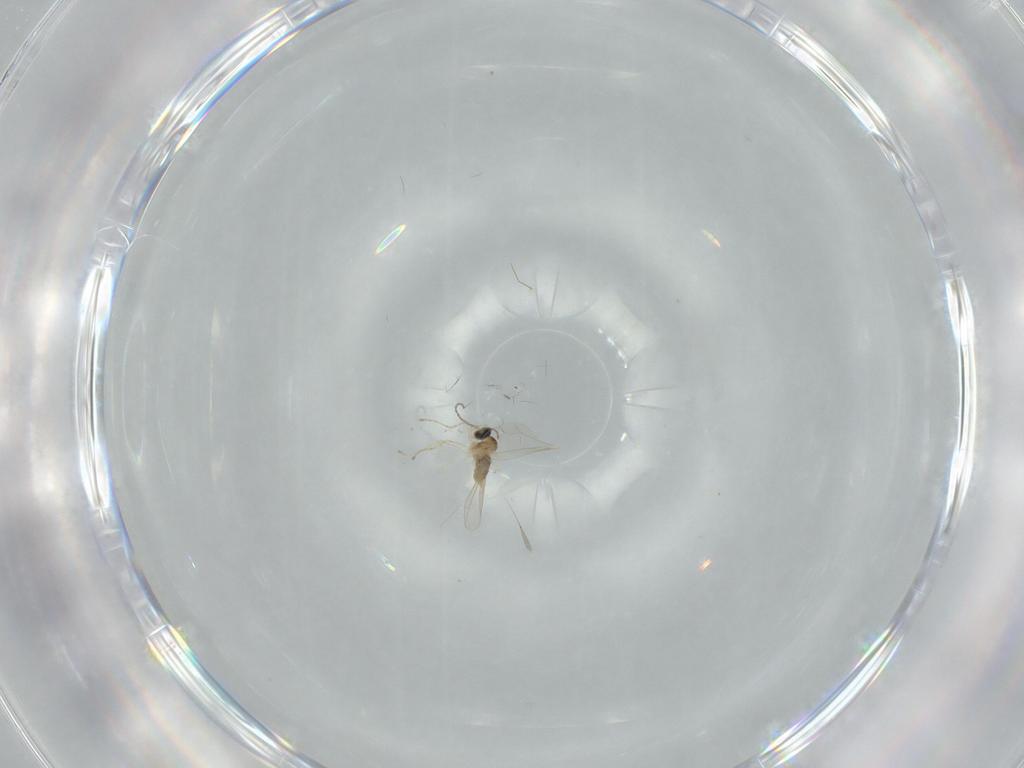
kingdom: Animalia
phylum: Arthropoda
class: Insecta
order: Diptera
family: Cecidomyiidae
